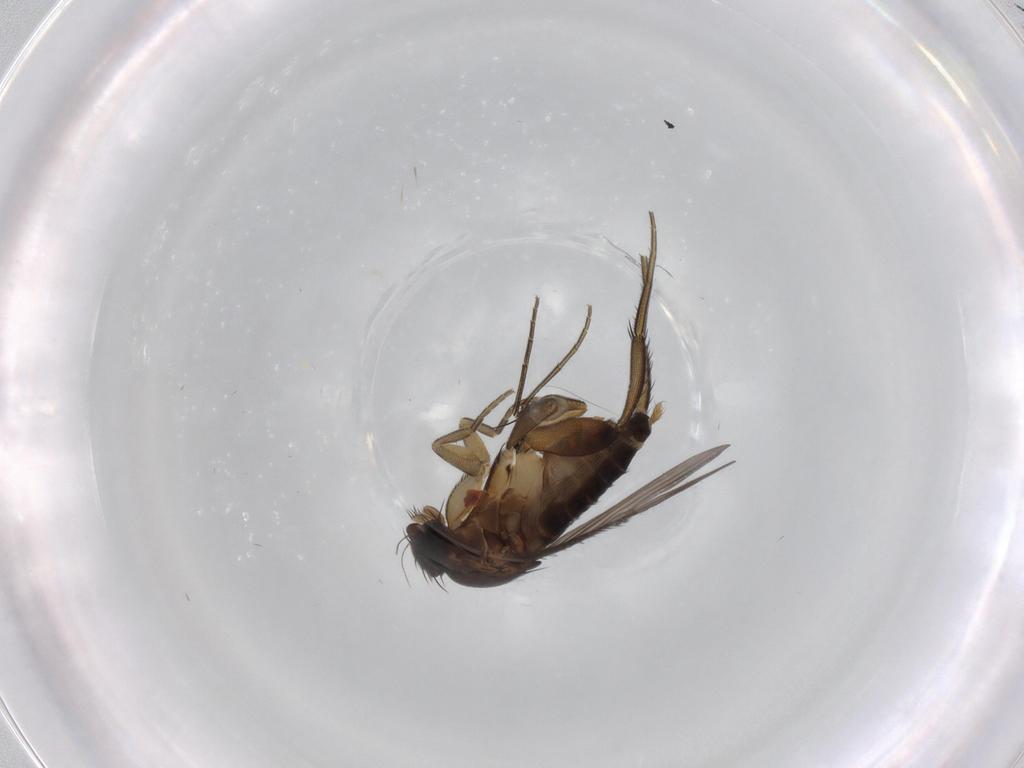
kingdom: Animalia
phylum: Arthropoda
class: Insecta
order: Diptera
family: Phoridae
